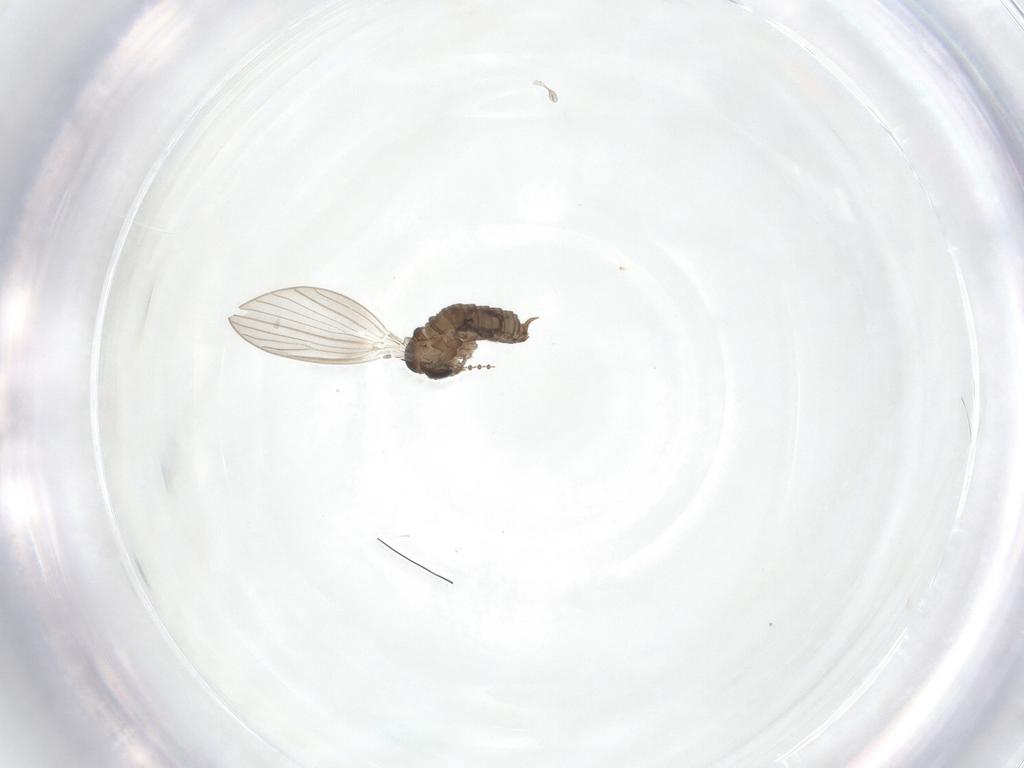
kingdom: Animalia
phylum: Arthropoda
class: Insecta
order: Diptera
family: Psychodidae
